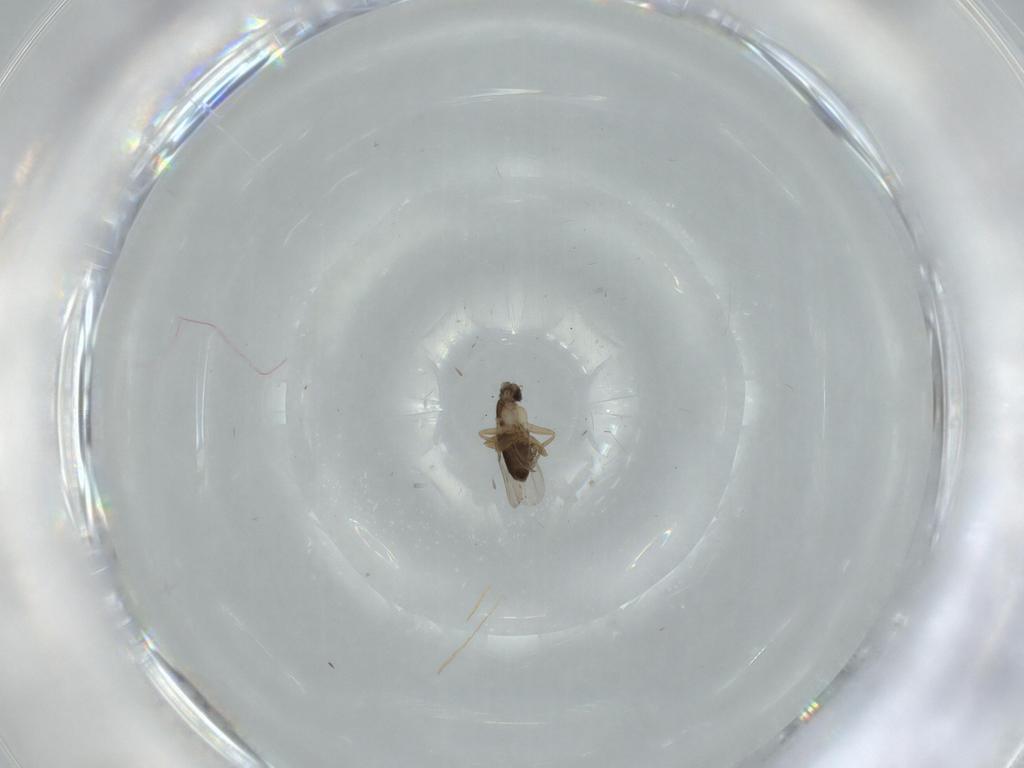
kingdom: Animalia
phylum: Arthropoda
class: Insecta
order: Diptera
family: Phoridae
